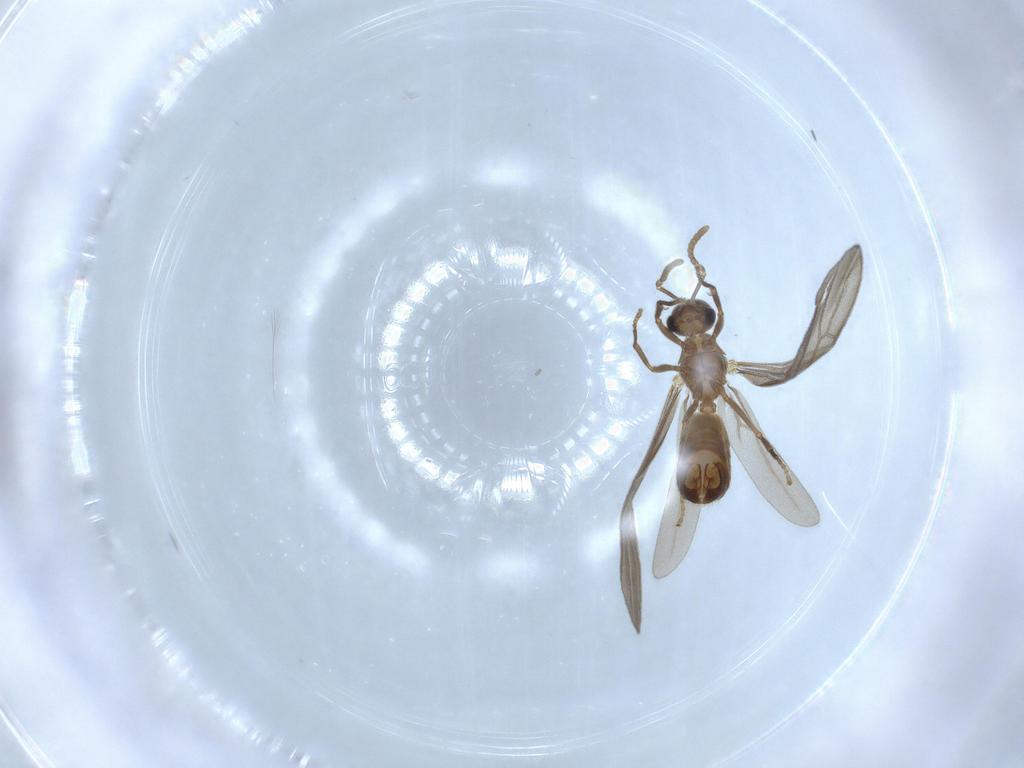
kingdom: Animalia
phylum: Arthropoda
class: Insecta
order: Hymenoptera
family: Formicidae
